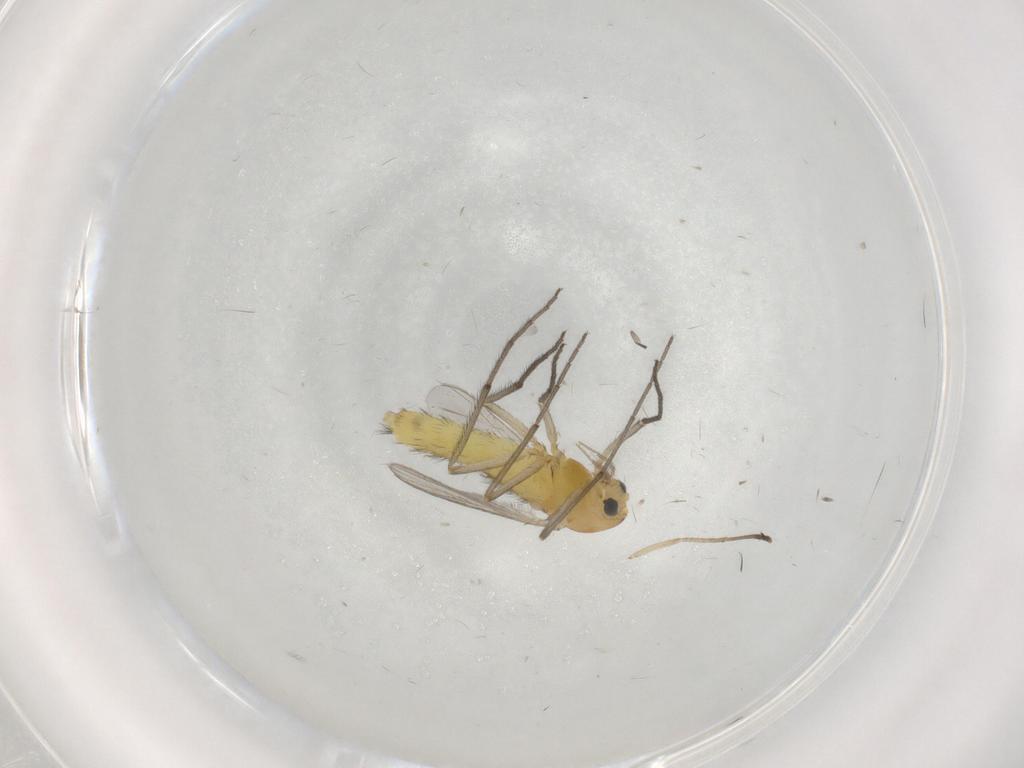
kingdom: Animalia
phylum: Arthropoda
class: Insecta
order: Diptera
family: Chironomidae
